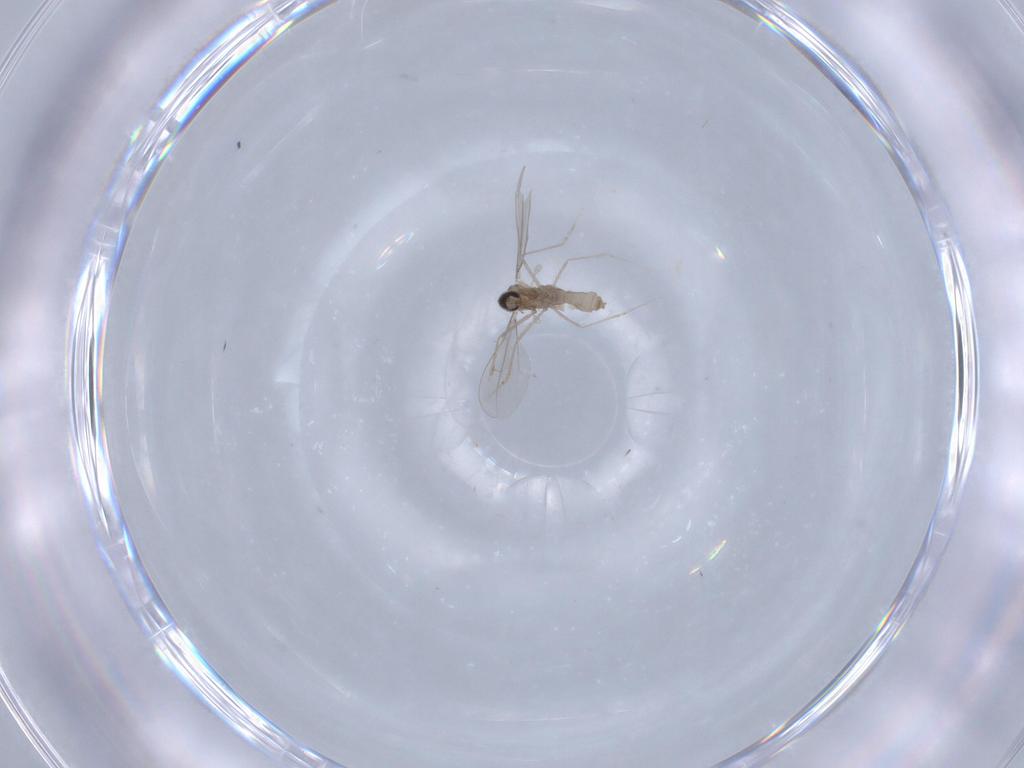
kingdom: Animalia
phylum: Arthropoda
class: Insecta
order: Diptera
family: Cecidomyiidae
